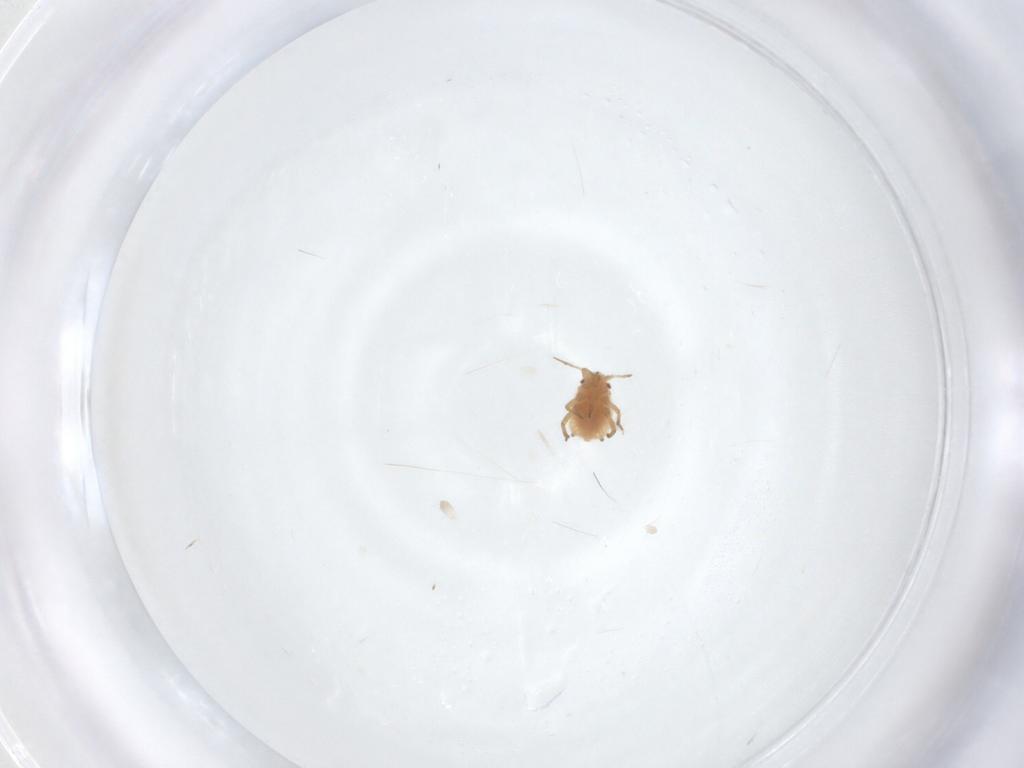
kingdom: Animalia
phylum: Arthropoda
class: Insecta
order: Hemiptera
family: Aphididae
